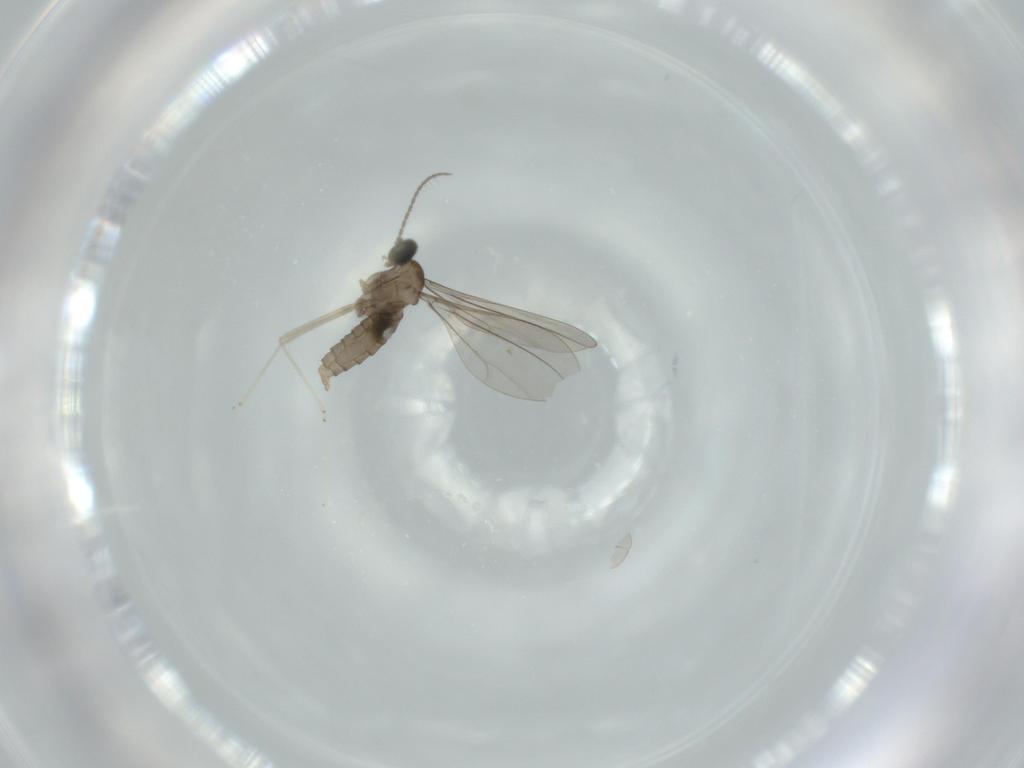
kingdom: Animalia
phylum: Arthropoda
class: Insecta
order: Diptera
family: Cecidomyiidae
